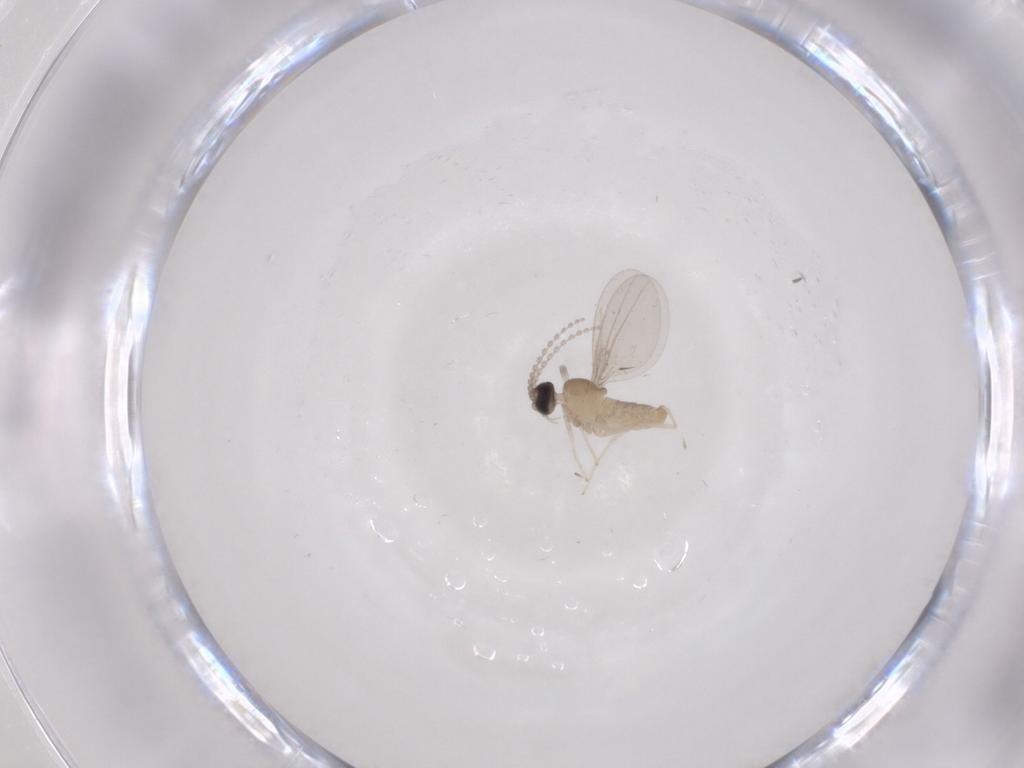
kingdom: Animalia
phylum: Arthropoda
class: Insecta
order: Diptera
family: Cecidomyiidae
